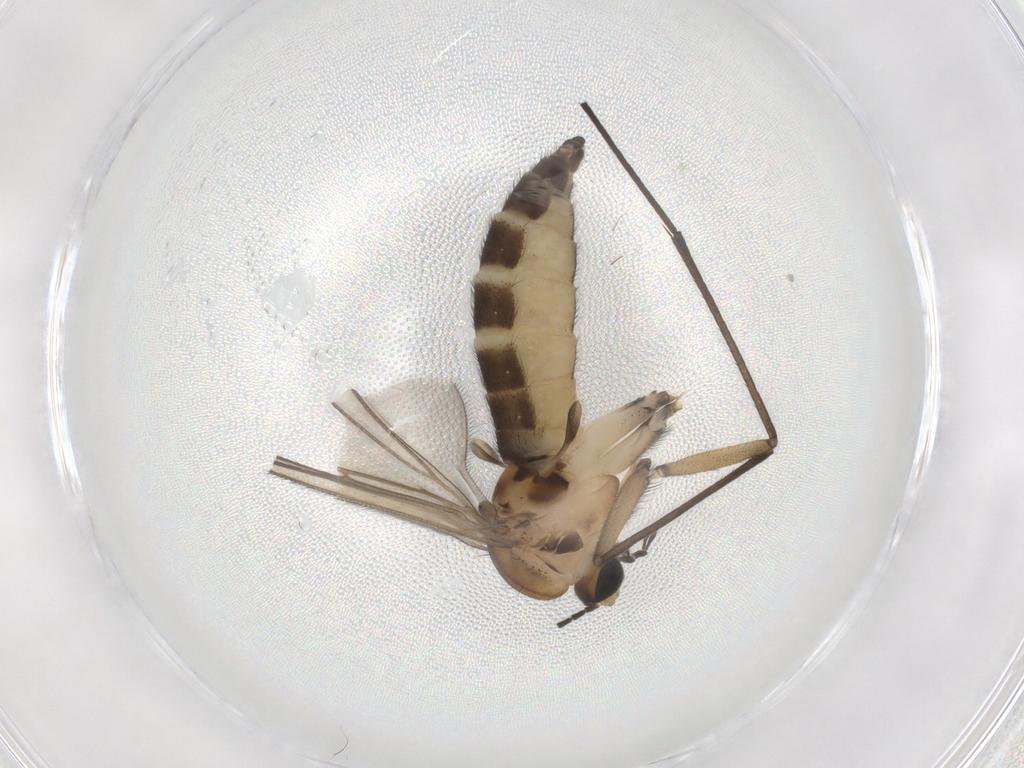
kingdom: Animalia
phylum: Arthropoda
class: Insecta
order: Diptera
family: Sciaridae
